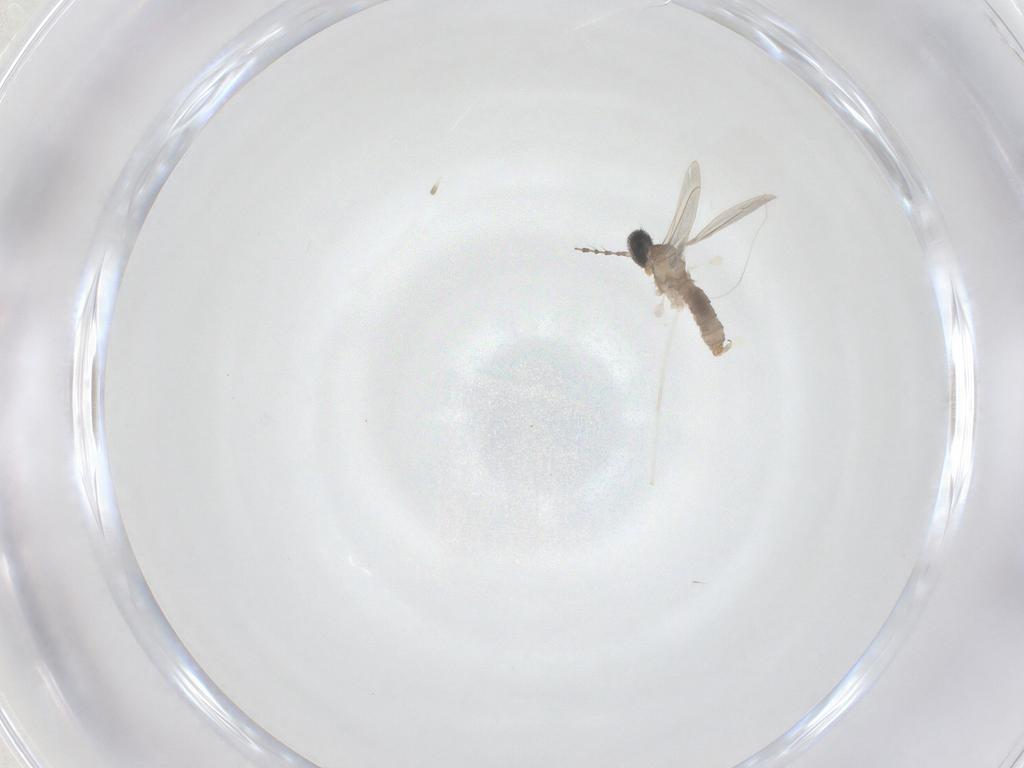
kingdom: Animalia
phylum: Arthropoda
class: Insecta
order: Diptera
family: Cecidomyiidae
